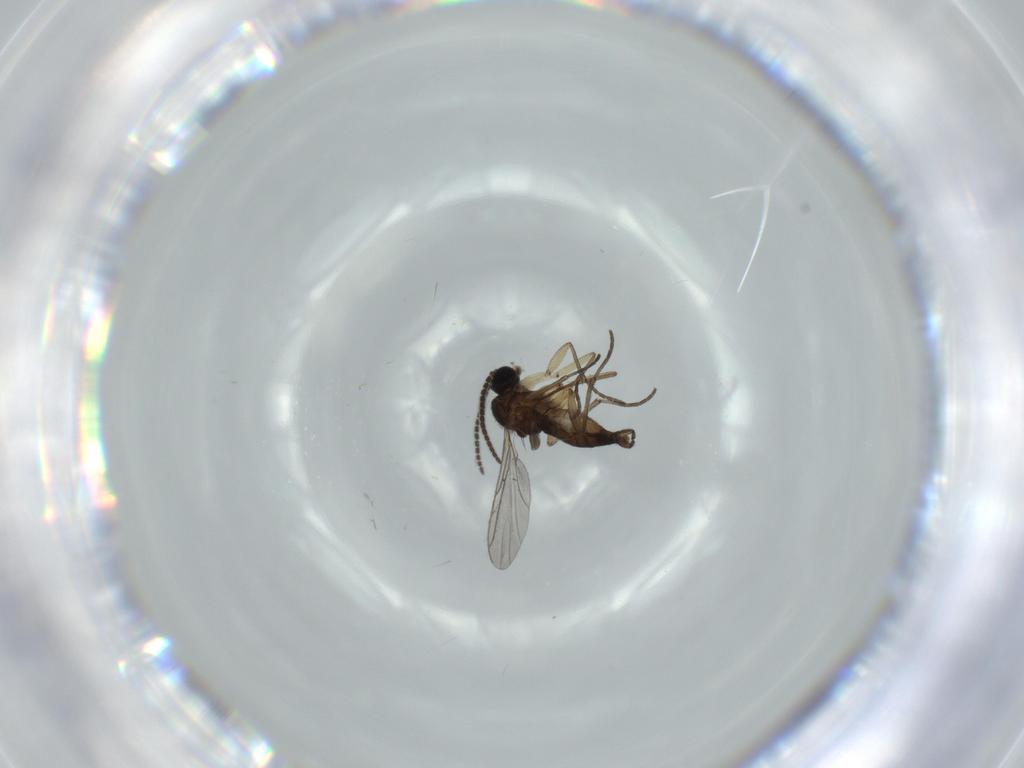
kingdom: Animalia
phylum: Arthropoda
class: Insecta
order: Diptera
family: Sciaridae
